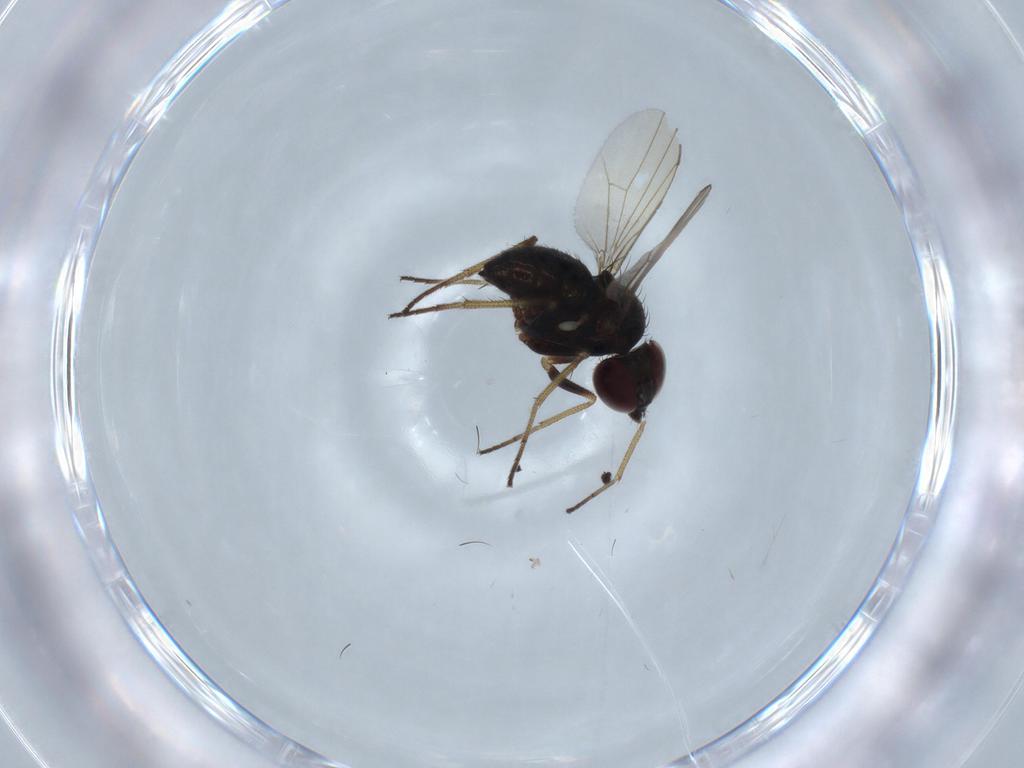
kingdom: Animalia
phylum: Arthropoda
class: Insecta
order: Diptera
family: Dolichopodidae
